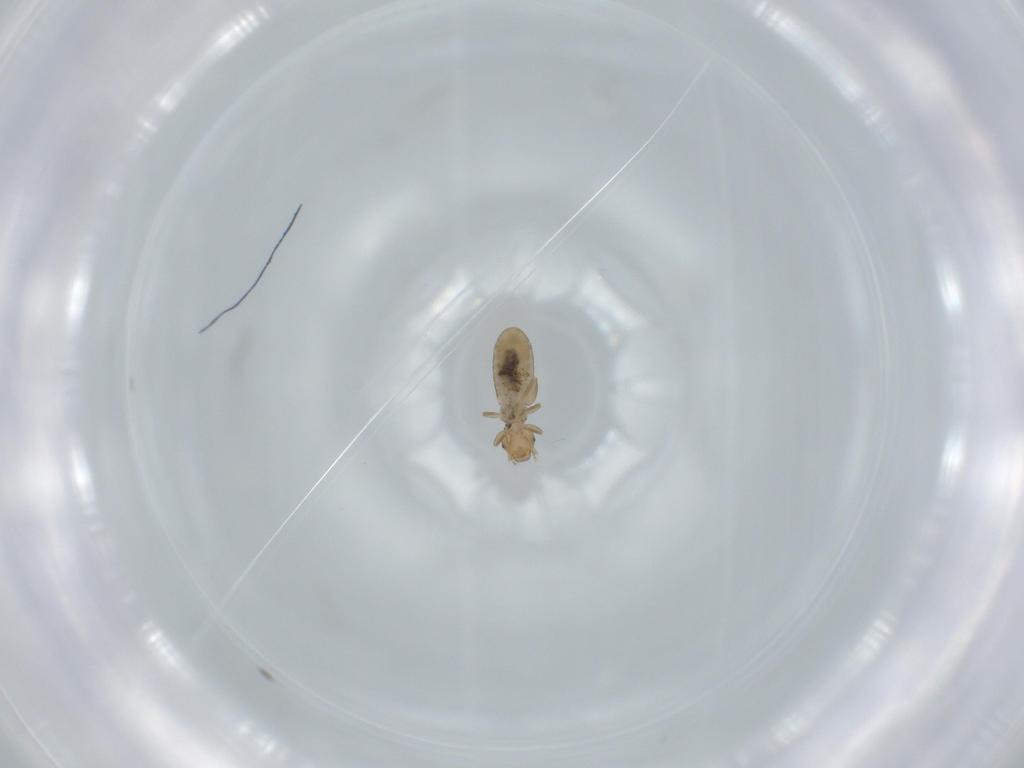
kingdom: Animalia
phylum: Arthropoda
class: Insecta
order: Psocodea
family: Liposcelididae
